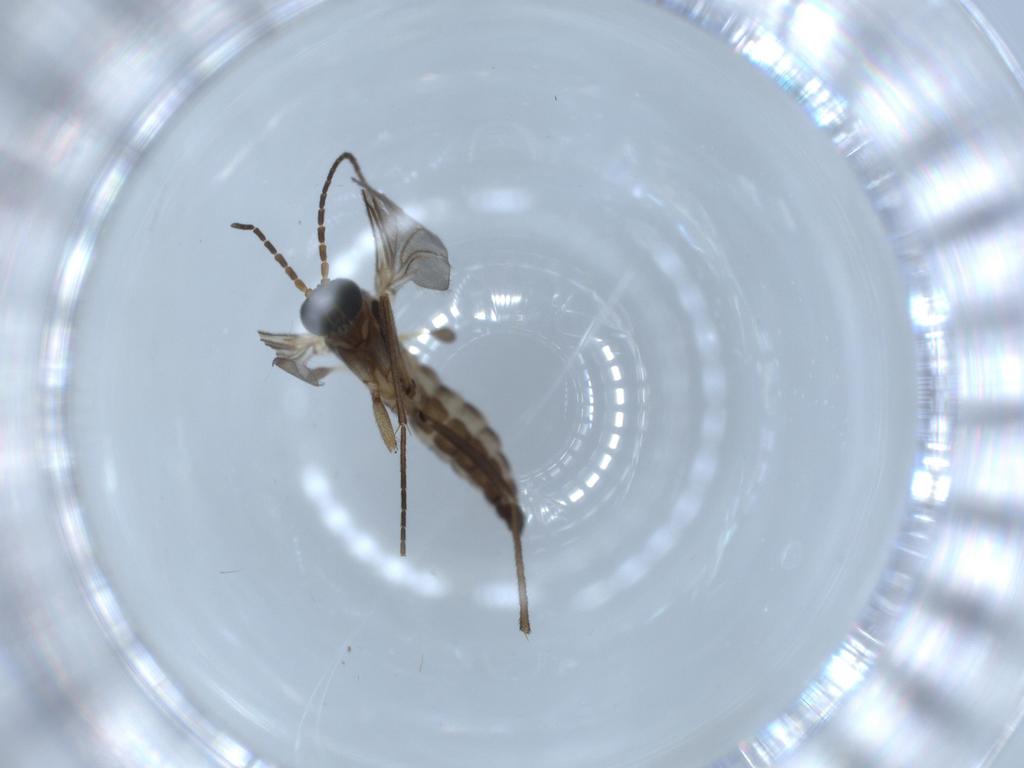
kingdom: Animalia
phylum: Arthropoda
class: Insecta
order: Diptera
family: Sciaridae
